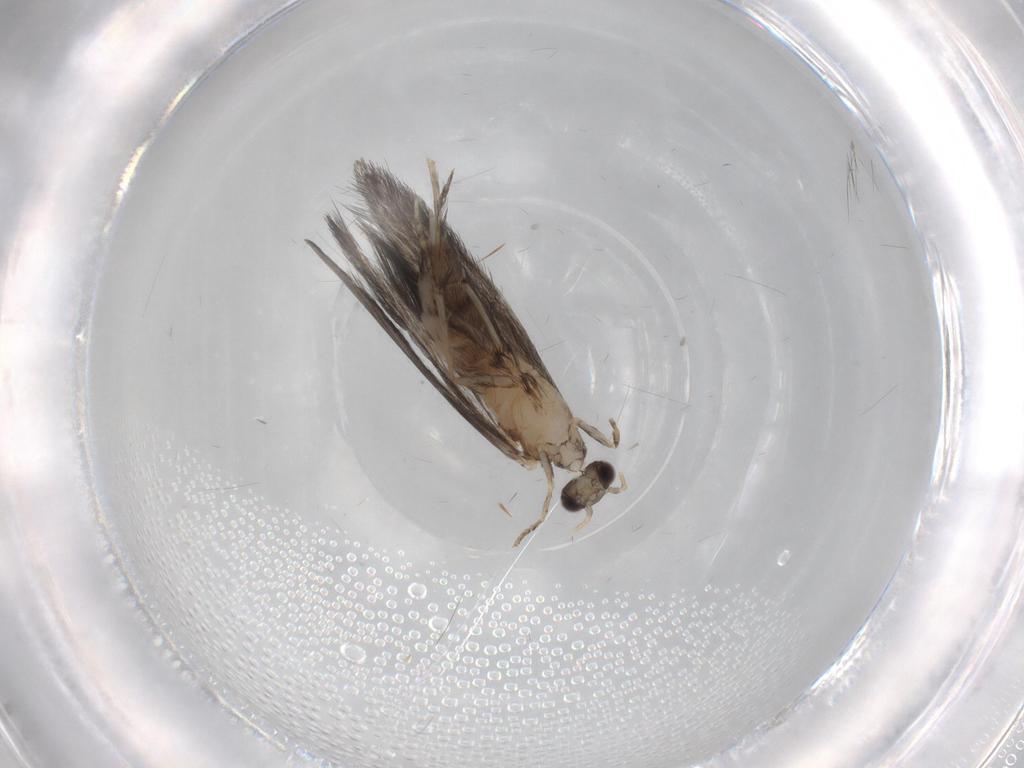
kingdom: Animalia
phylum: Arthropoda
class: Insecta
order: Trichoptera
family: Hydroptilidae
